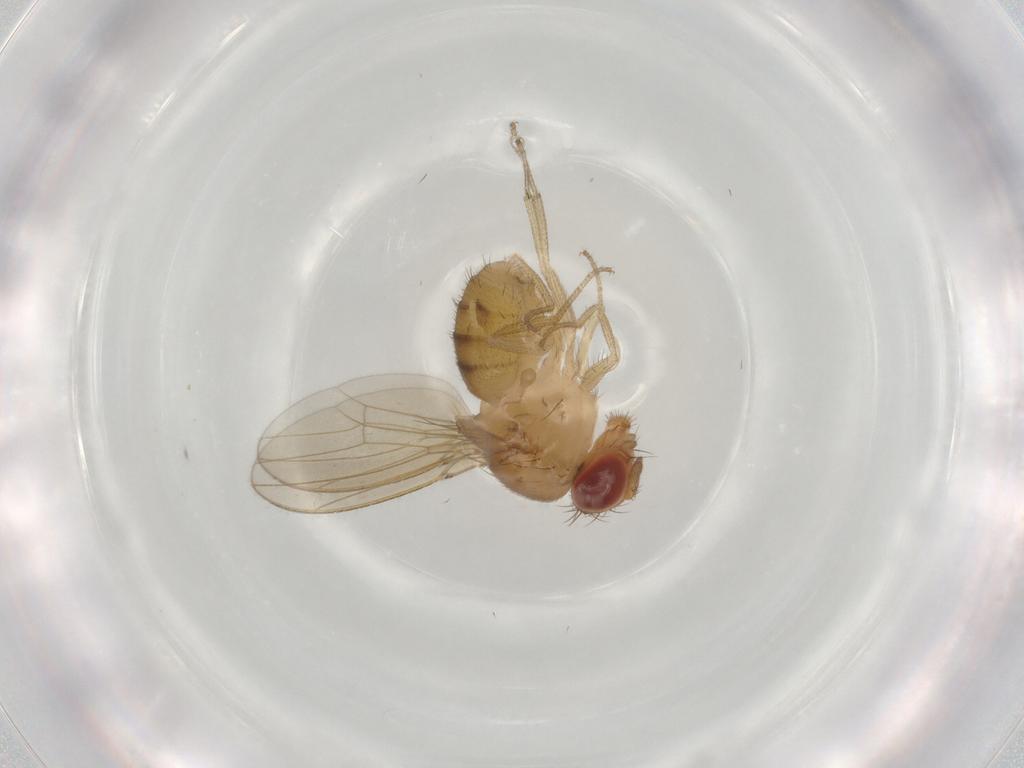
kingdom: Animalia
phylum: Arthropoda
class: Insecta
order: Diptera
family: Drosophilidae
